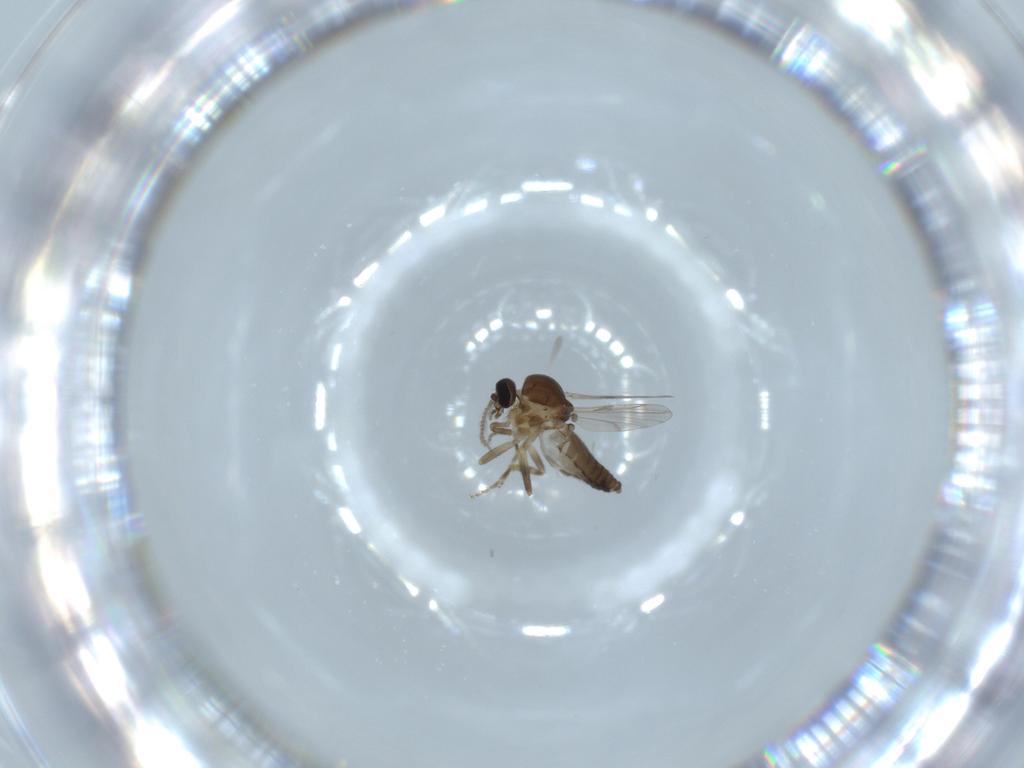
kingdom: Animalia
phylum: Arthropoda
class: Insecta
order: Diptera
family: Ceratopogonidae
